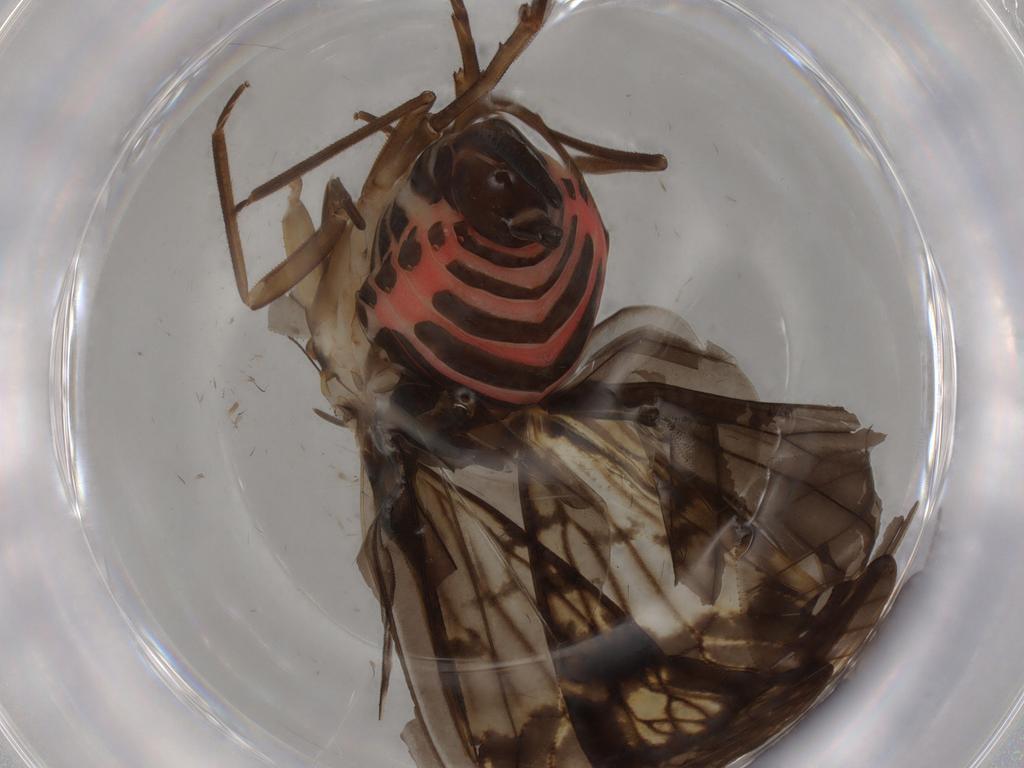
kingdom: Animalia
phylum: Arthropoda
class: Insecta
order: Hemiptera
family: Cixiidae
